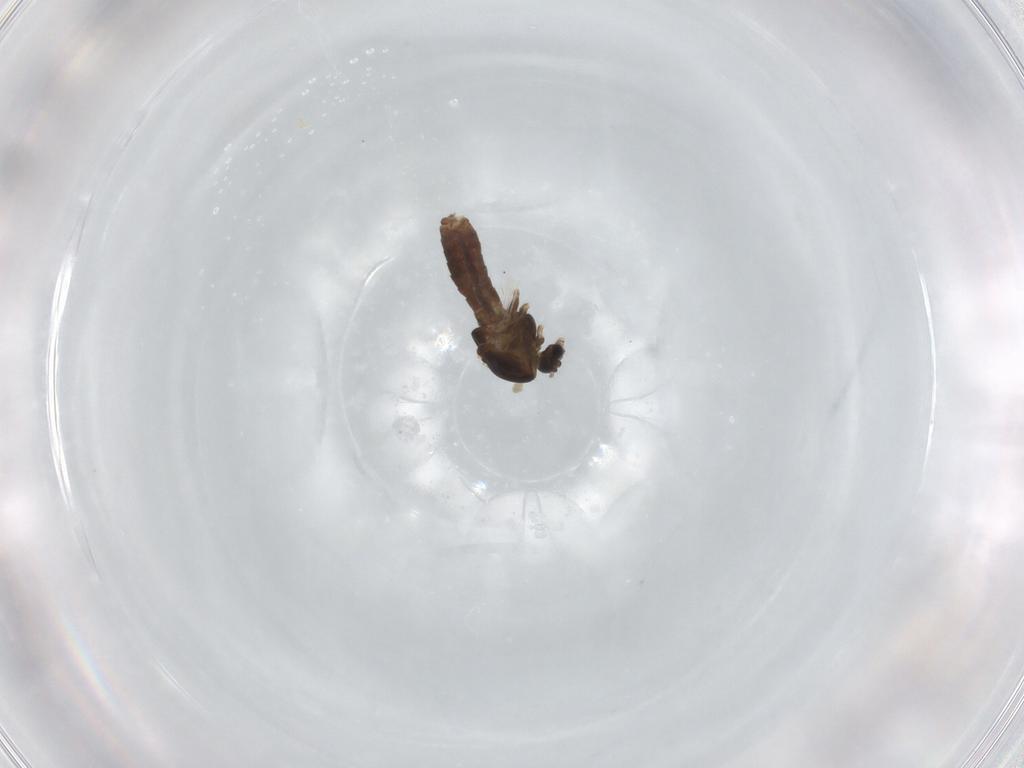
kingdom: Animalia
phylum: Arthropoda
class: Insecta
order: Diptera
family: Chironomidae
